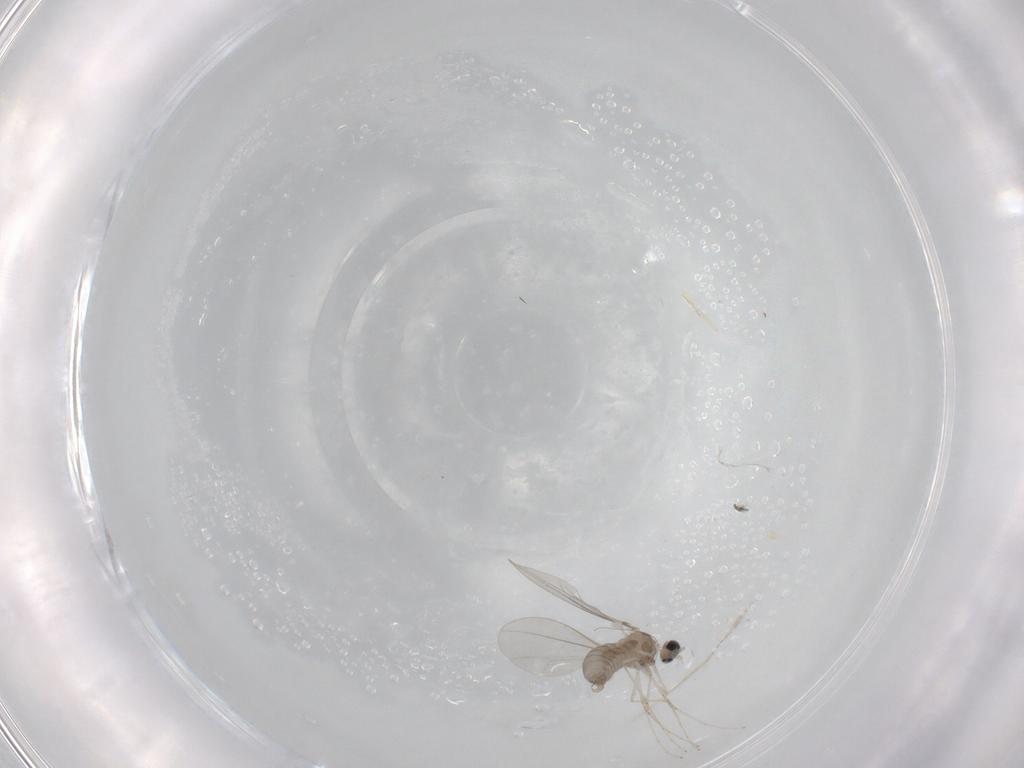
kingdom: Animalia
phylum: Arthropoda
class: Insecta
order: Diptera
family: Cecidomyiidae
